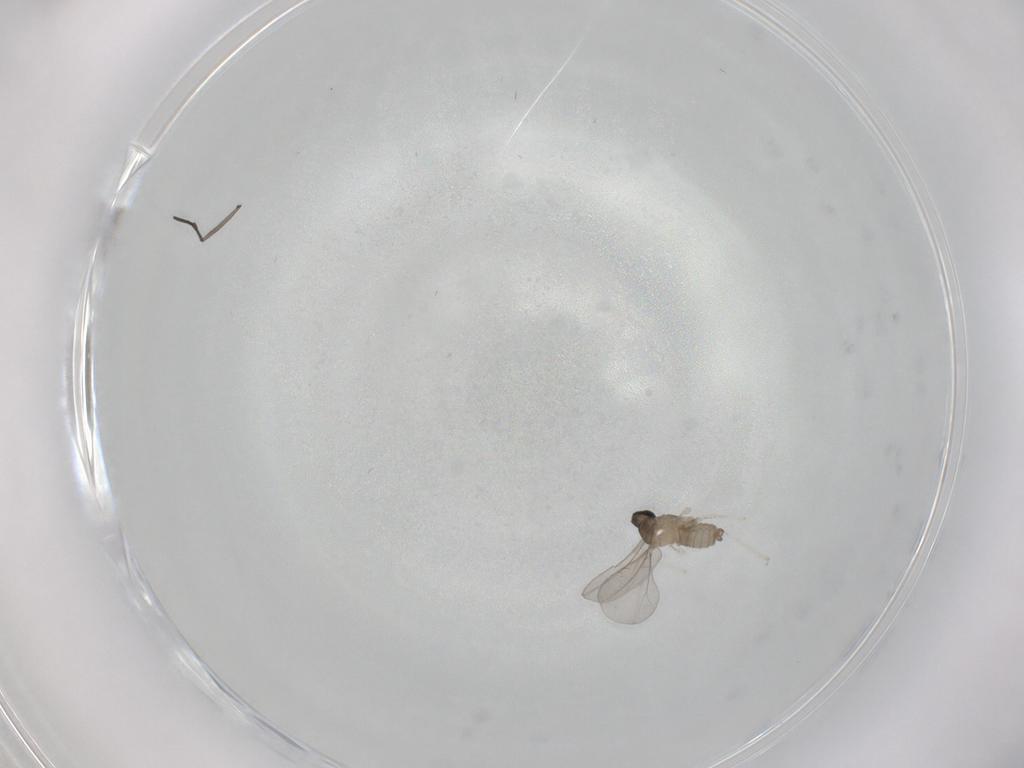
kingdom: Animalia
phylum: Arthropoda
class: Insecta
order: Diptera
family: Cecidomyiidae
